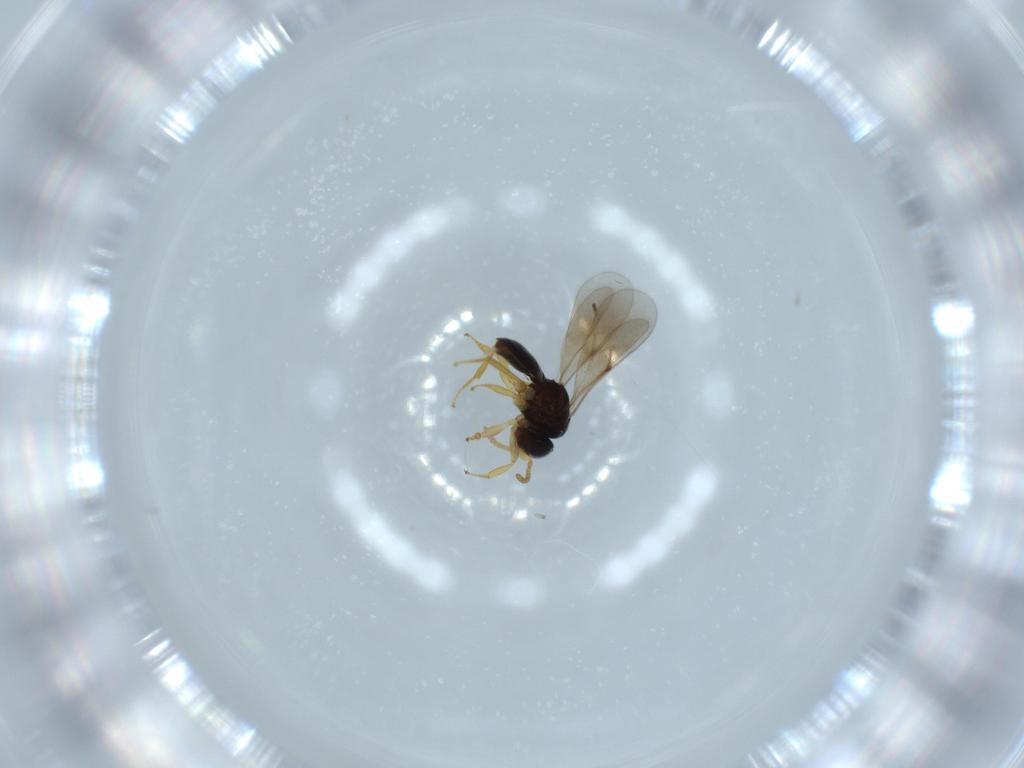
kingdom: Animalia
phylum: Arthropoda
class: Insecta
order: Hymenoptera
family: Scelionidae
